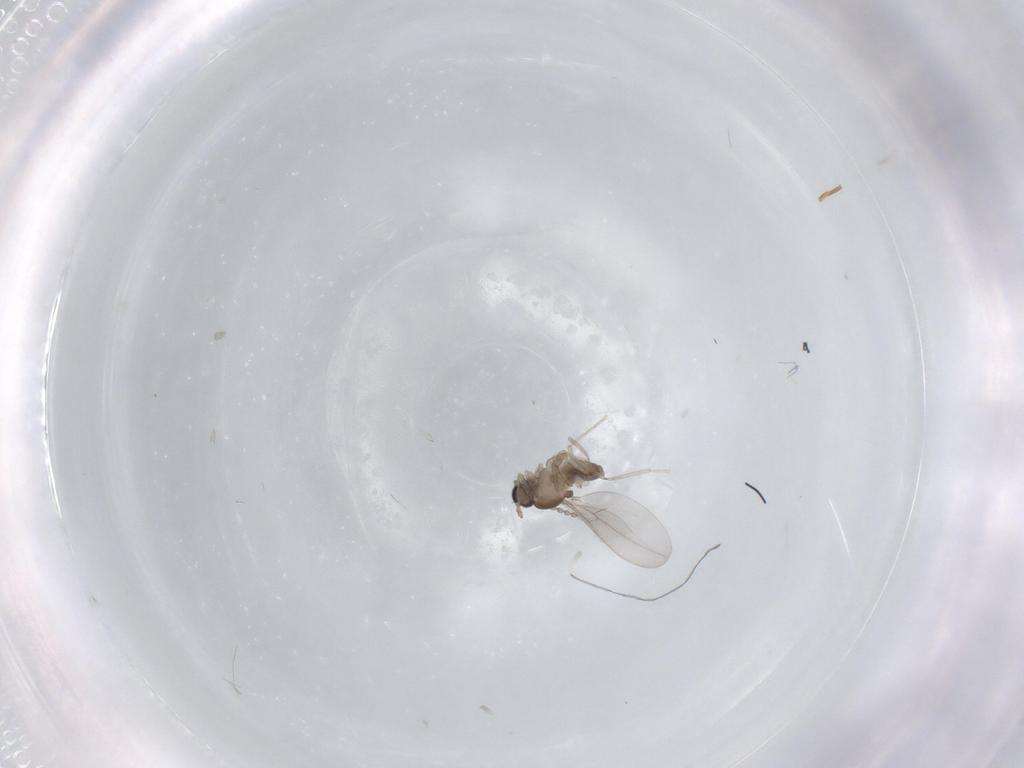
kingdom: Animalia
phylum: Arthropoda
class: Insecta
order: Diptera
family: Cecidomyiidae
